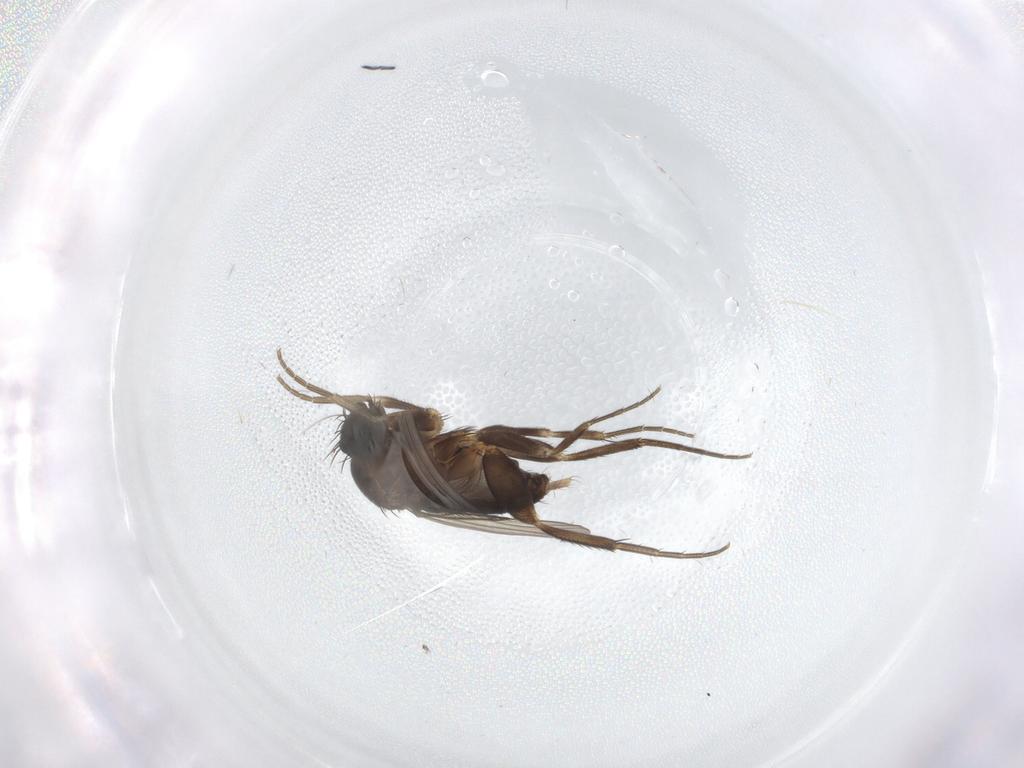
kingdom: Animalia
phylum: Arthropoda
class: Insecta
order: Diptera
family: Phoridae
